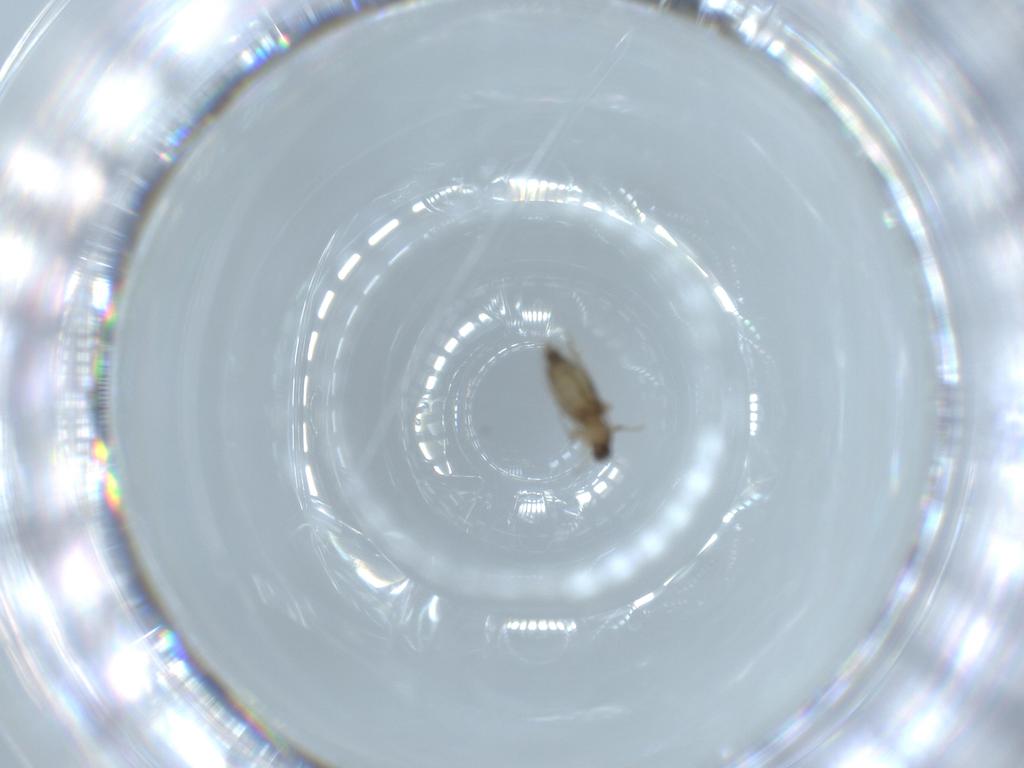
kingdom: Animalia
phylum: Arthropoda
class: Insecta
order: Diptera
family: Phoridae
